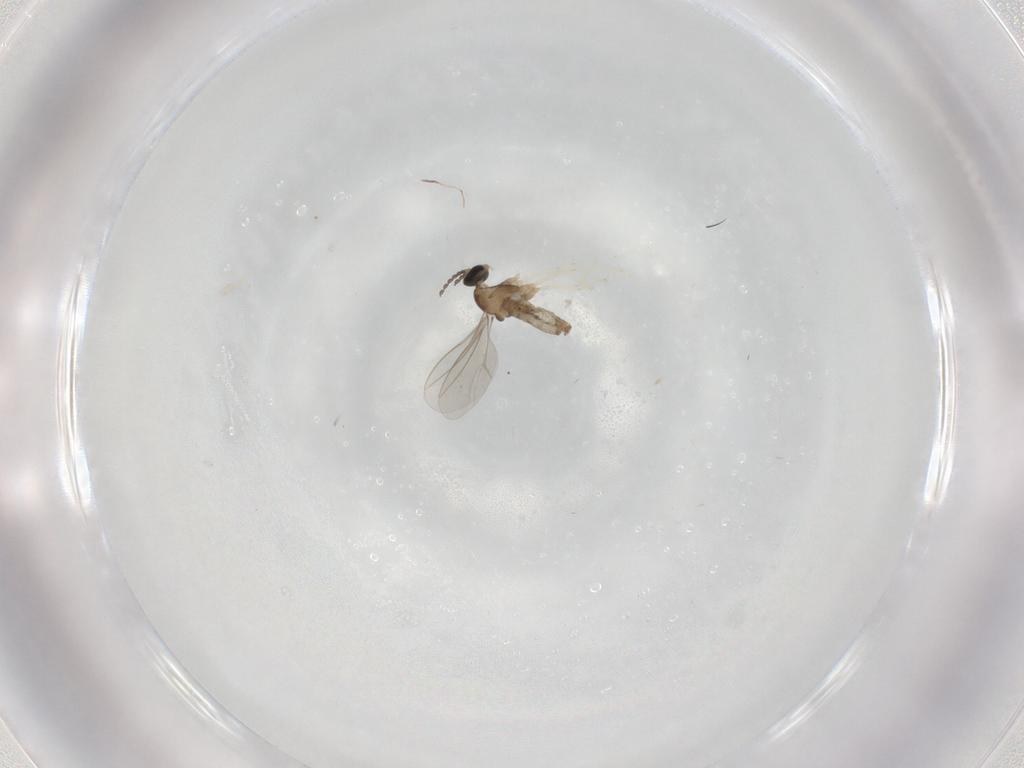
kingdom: Animalia
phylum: Arthropoda
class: Insecta
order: Diptera
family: Cecidomyiidae
